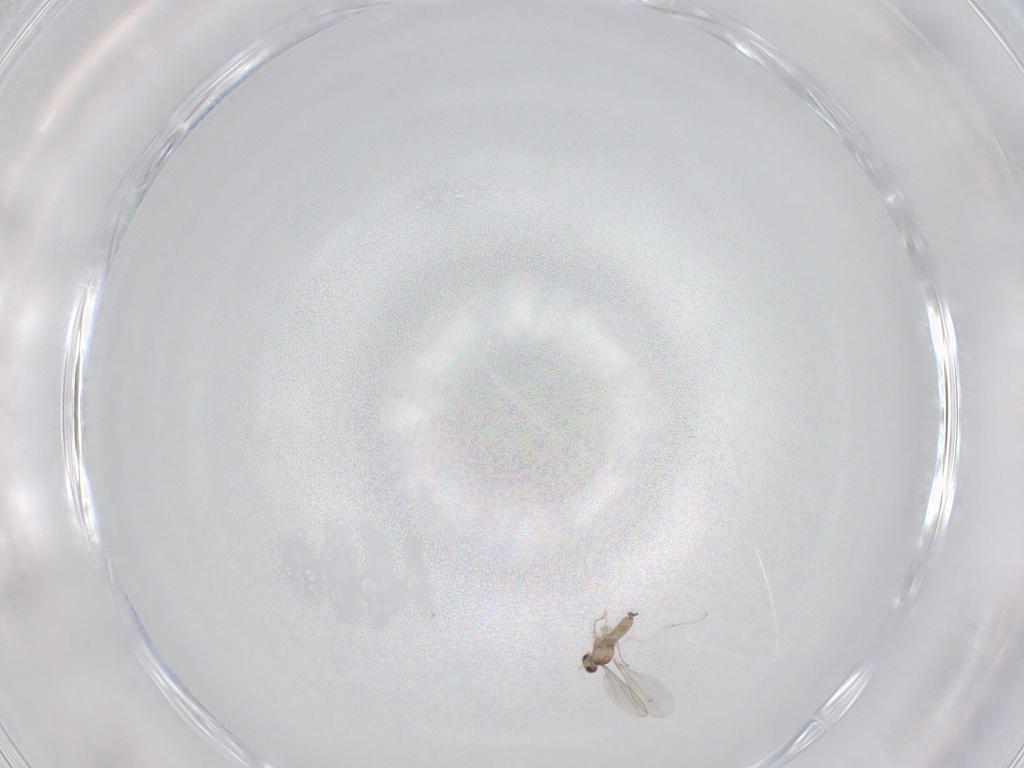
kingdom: Animalia
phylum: Arthropoda
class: Insecta
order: Diptera
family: Cecidomyiidae
